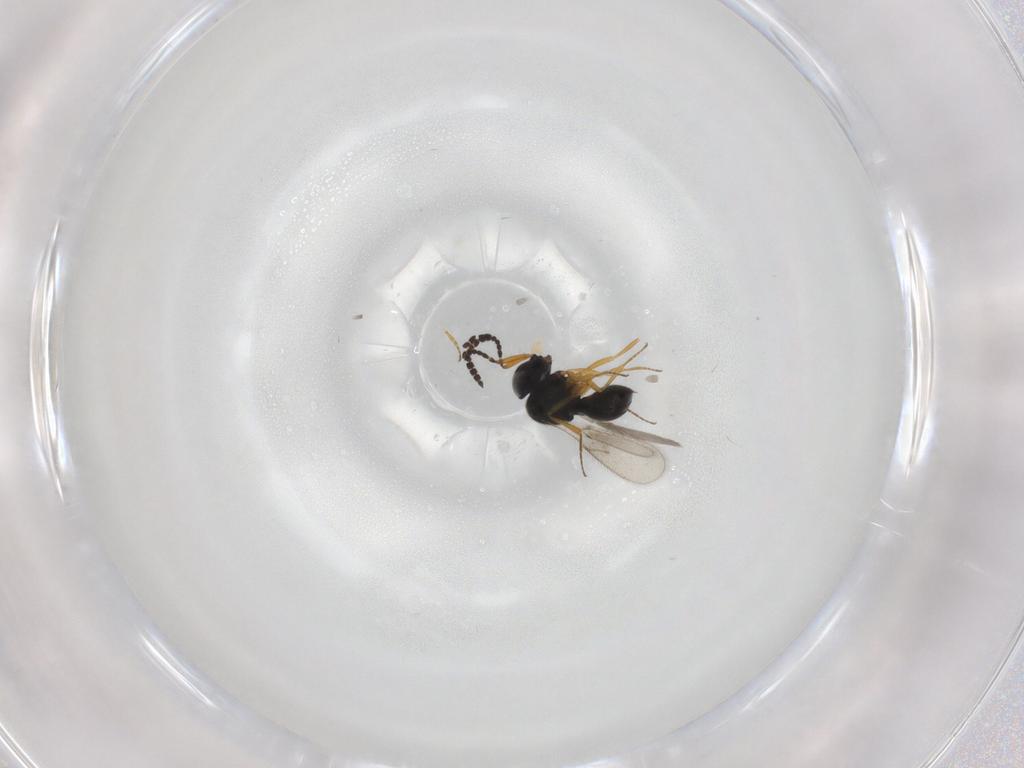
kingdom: Animalia
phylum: Arthropoda
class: Insecta
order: Hymenoptera
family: Scelionidae
